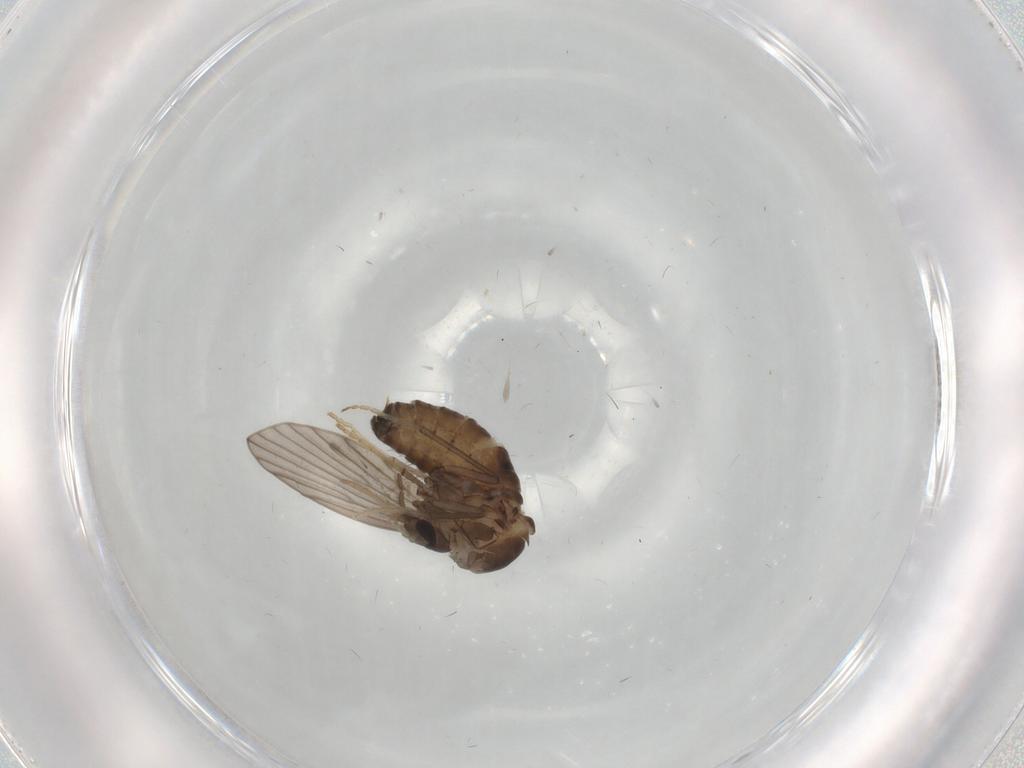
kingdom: Animalia
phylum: Arthropoda
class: Insecta
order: Diptera
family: Psychodidae
